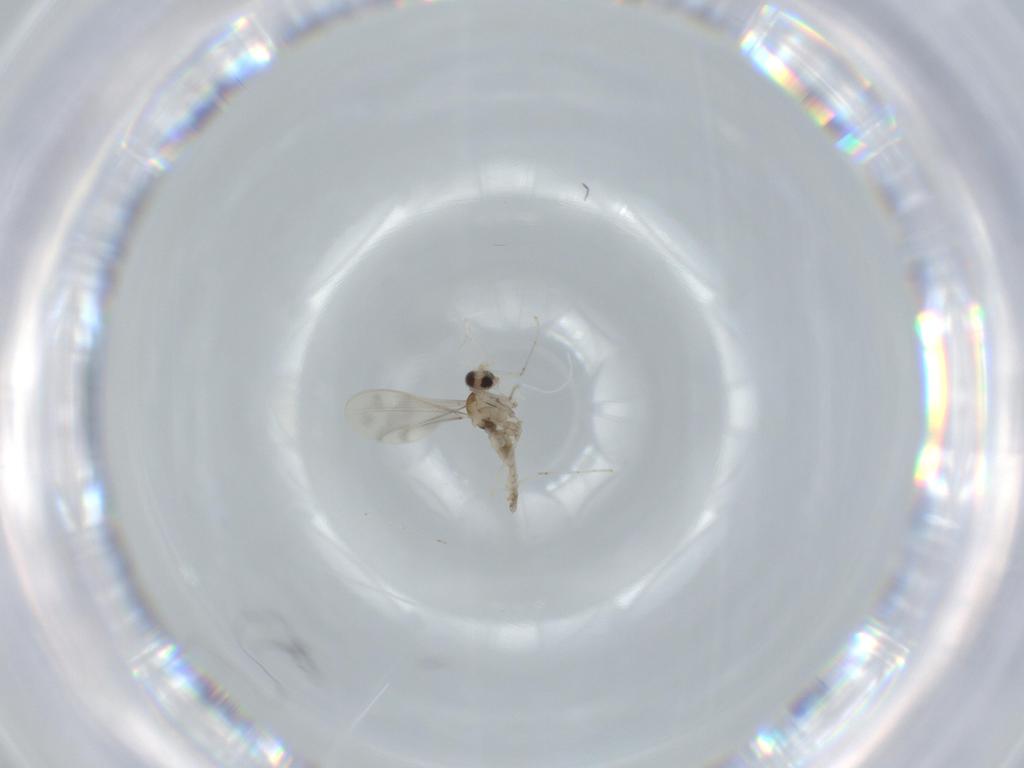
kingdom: Animalia
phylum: Arthropoda
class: Insecta
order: Diptera
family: Cecidomyiidae
